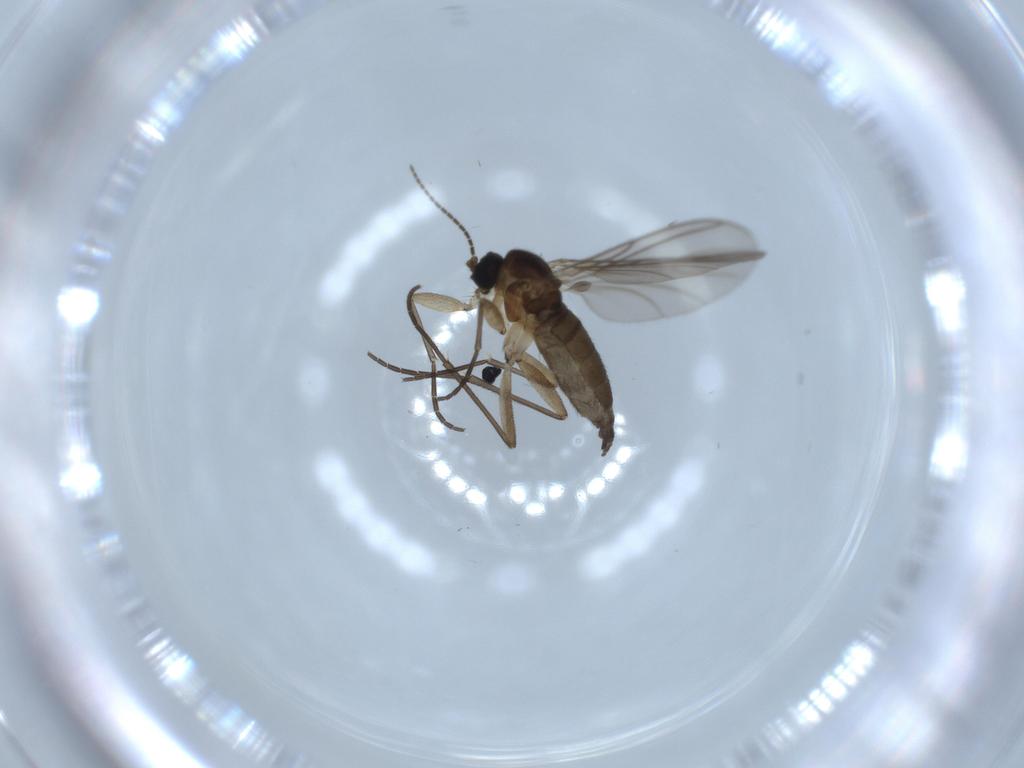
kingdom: Animalia
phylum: Arthropoda
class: Insecta
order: Diptera
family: Sciaridae
